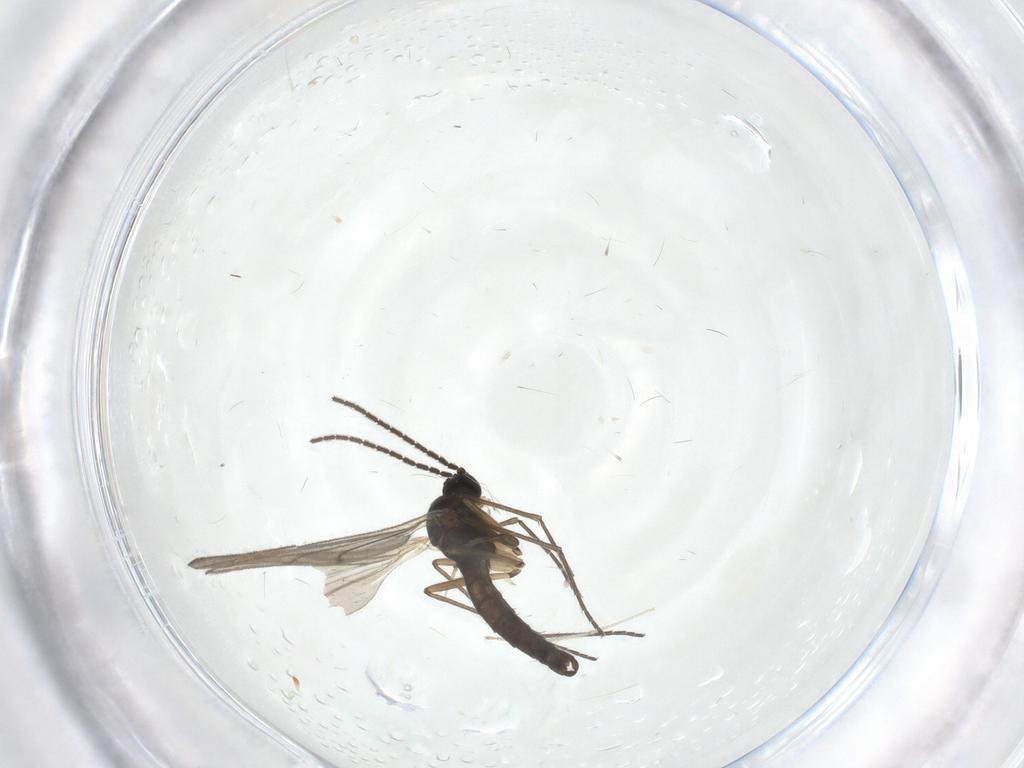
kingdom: Animalia
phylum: Arthropoda
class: Insecta
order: Diptera
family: Sciaridae
